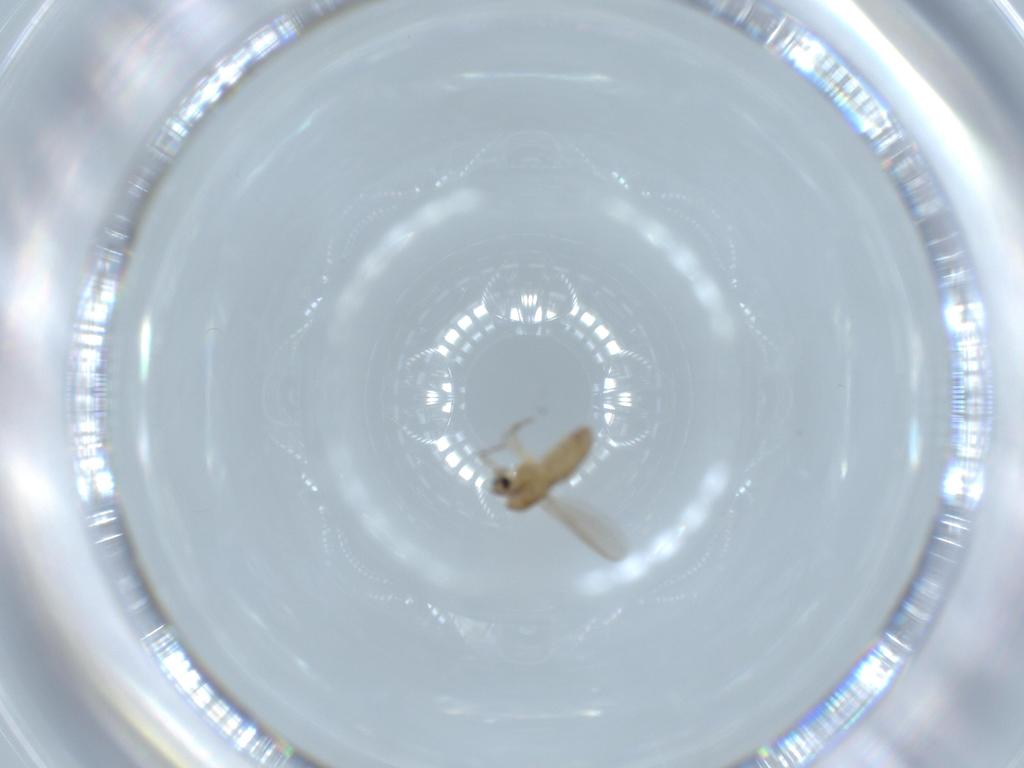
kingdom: Animalia
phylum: Arthropoda
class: Insecta
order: Diptera
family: Chironomidae
